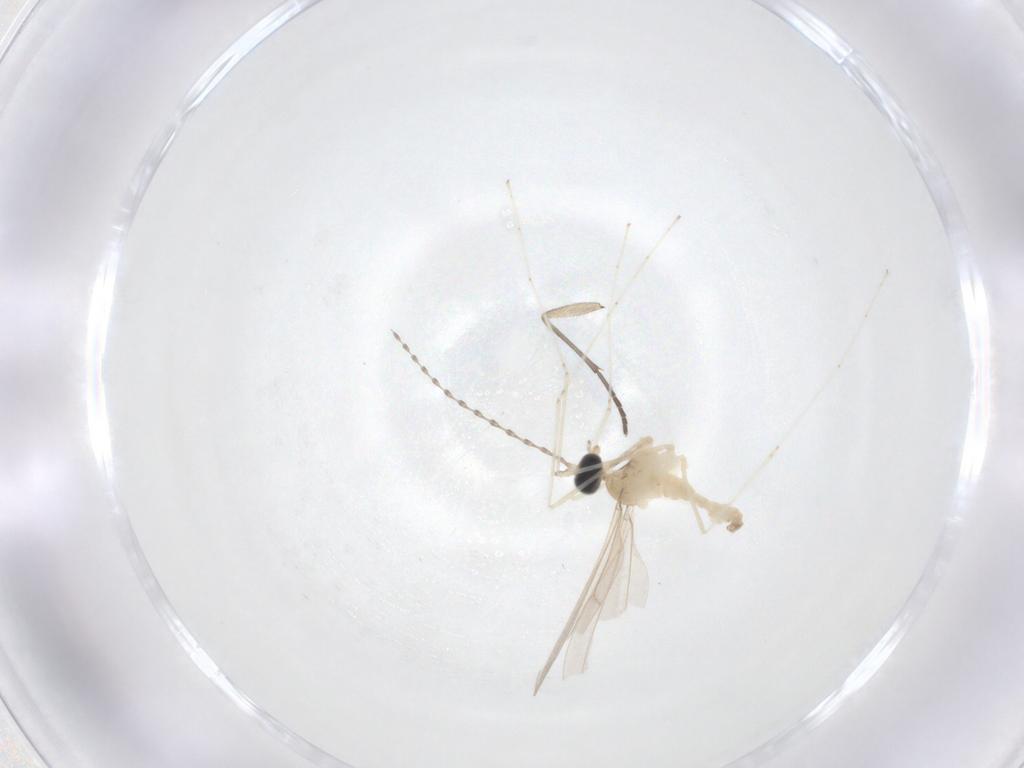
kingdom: Animalia
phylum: Arthropoda
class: Insecta
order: Diptera
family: Cecidomyiidae
